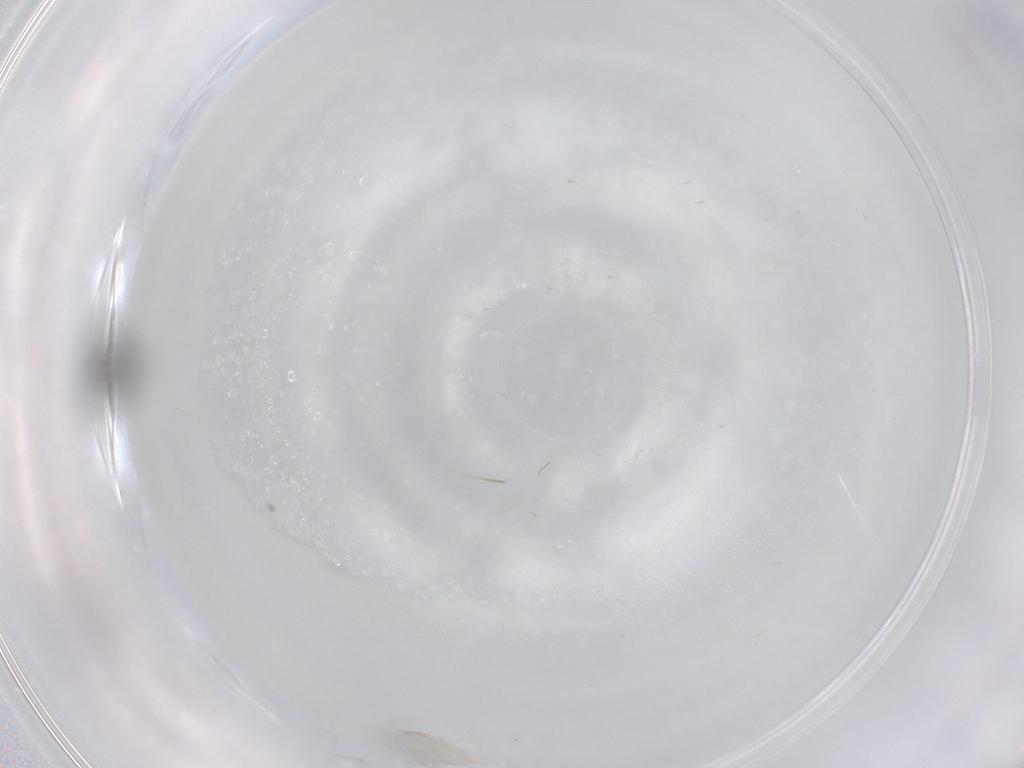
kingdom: Animalia
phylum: Arthropoda
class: Insecta
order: Diptera
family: Ceratopogonidae
